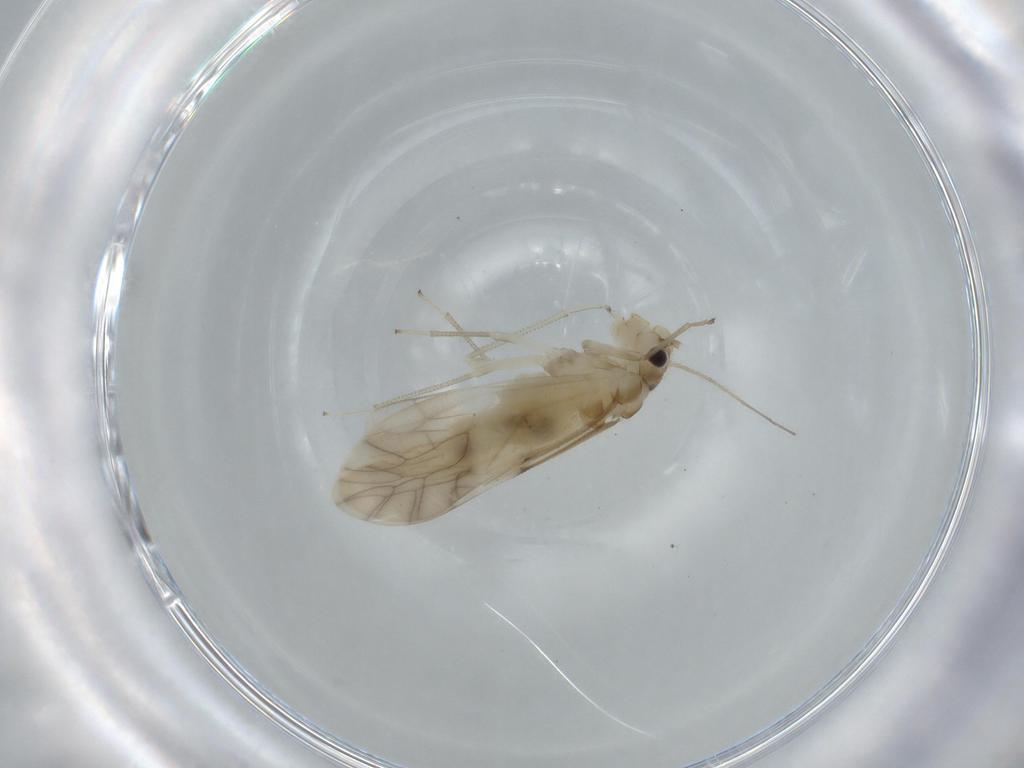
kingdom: Animalia
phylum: Arthropoda
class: Insecta
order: Psocodea
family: Caeciliusidae
